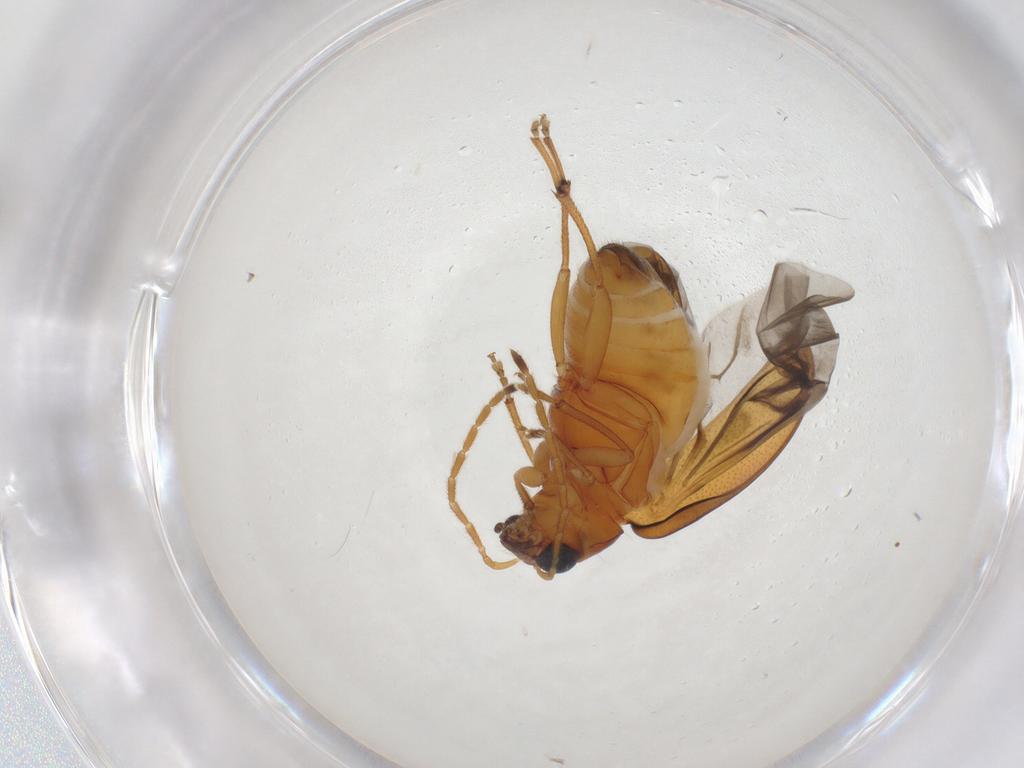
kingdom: Animalia
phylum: Arthropoda
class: Insecta
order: Coleoptera
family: Chrysomelidae
